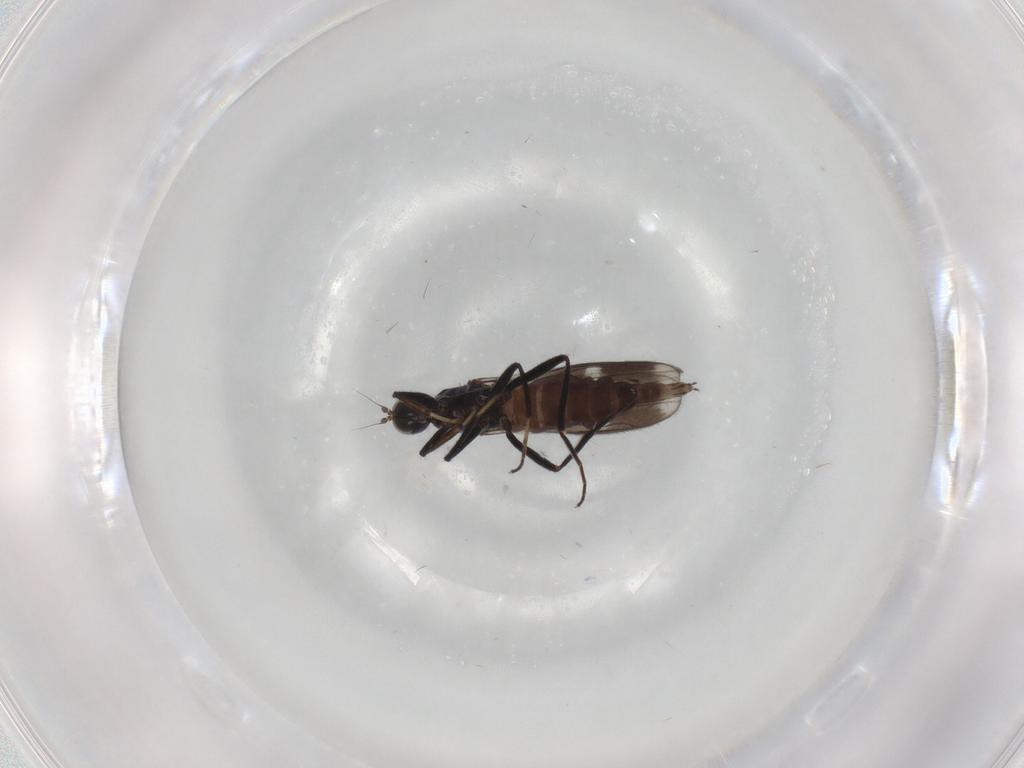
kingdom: Animalia
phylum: Arthropoda
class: Insecta
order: Diptera
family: Hybotidae
